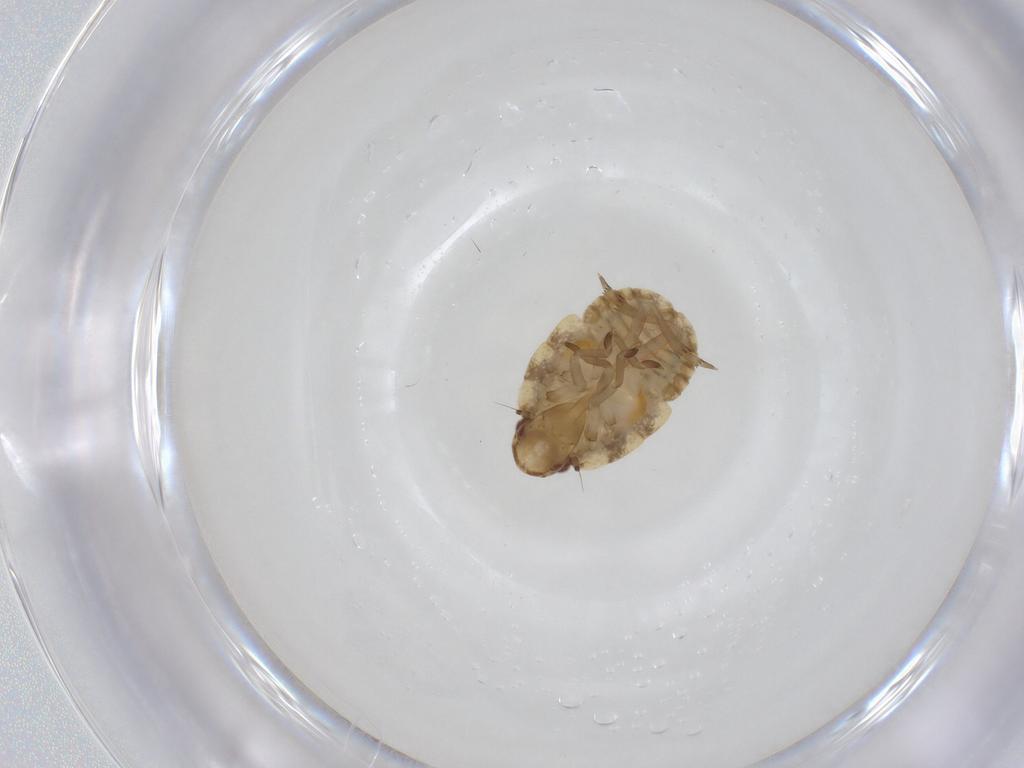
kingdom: Animalia
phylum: Arthropoda
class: Insecta
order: Hemiptera
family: Flatidae
